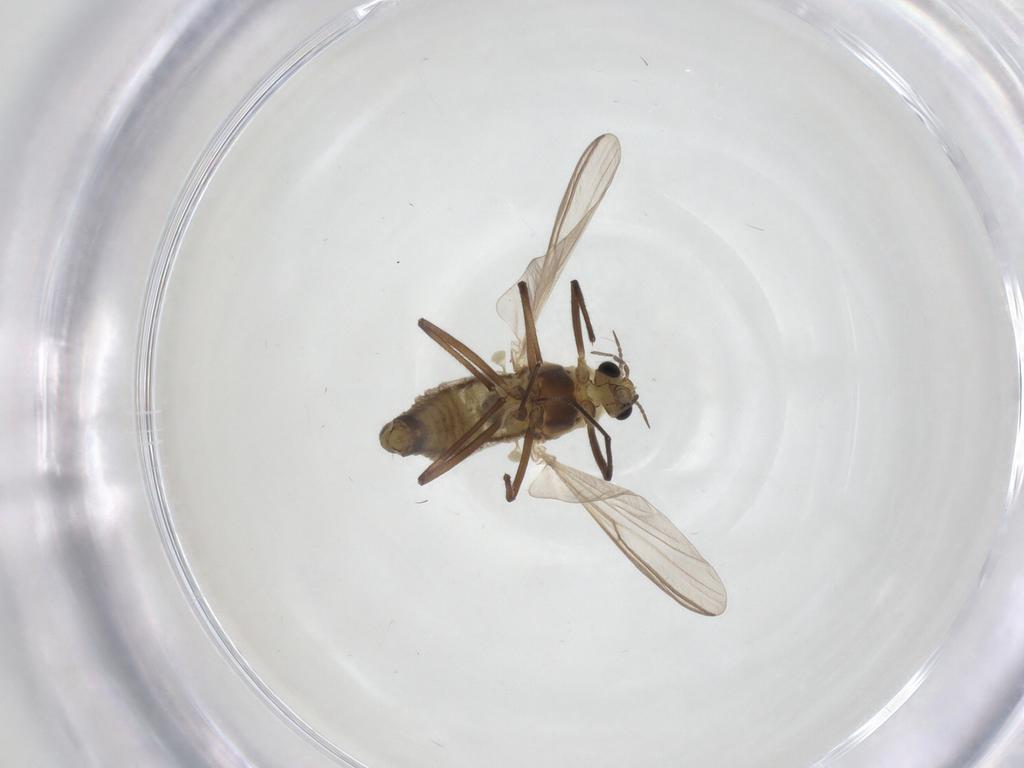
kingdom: Animalia
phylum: Arthropoda
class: Insecta
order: Diptera
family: Chironomidae
